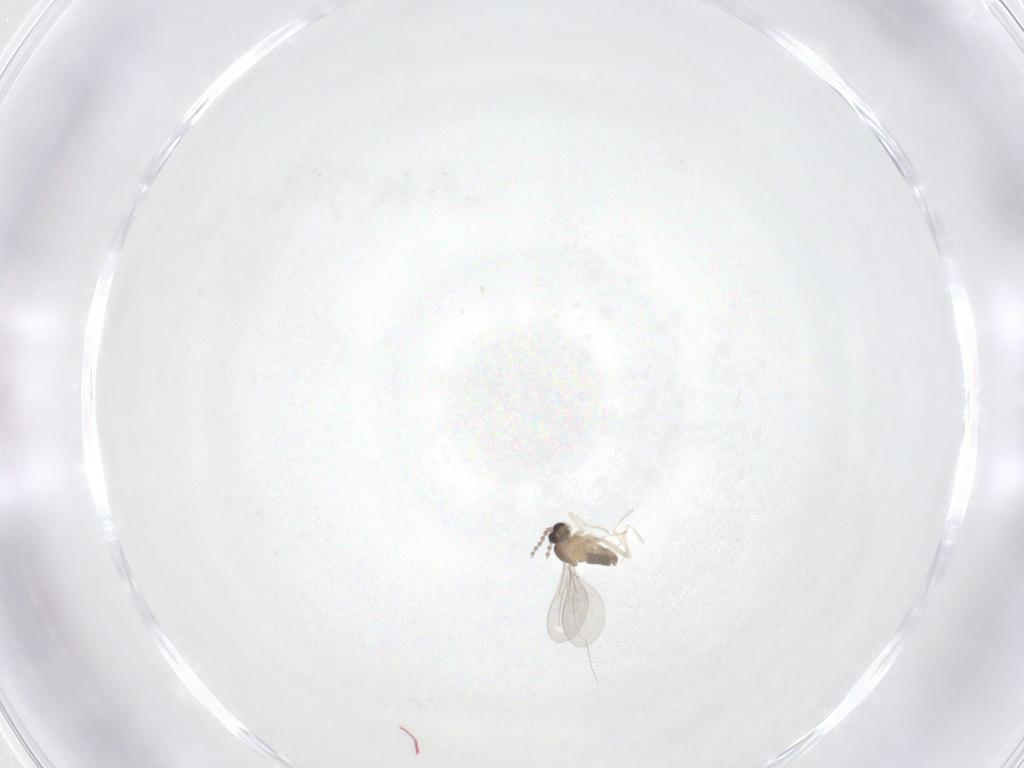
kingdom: Animalia
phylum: Arthropoda
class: Insecta
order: Diptera
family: Cecidomyiidae
